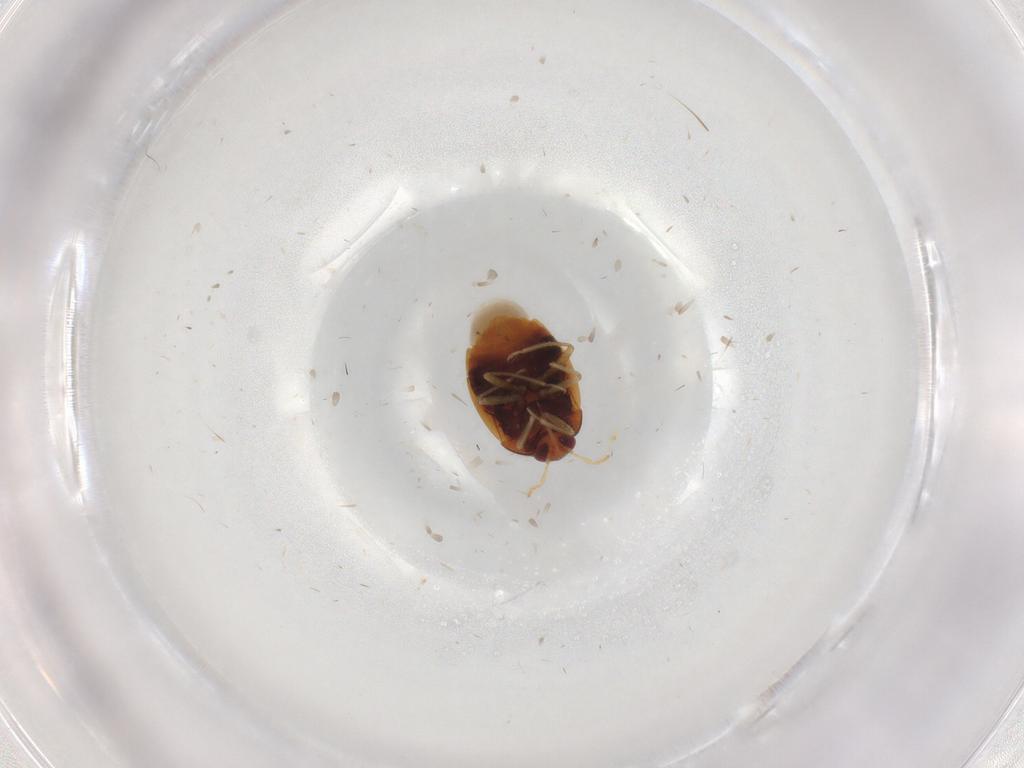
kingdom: Animalia
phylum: Arthropoda
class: Insecta
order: Hemiptera
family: Anthocoridae
